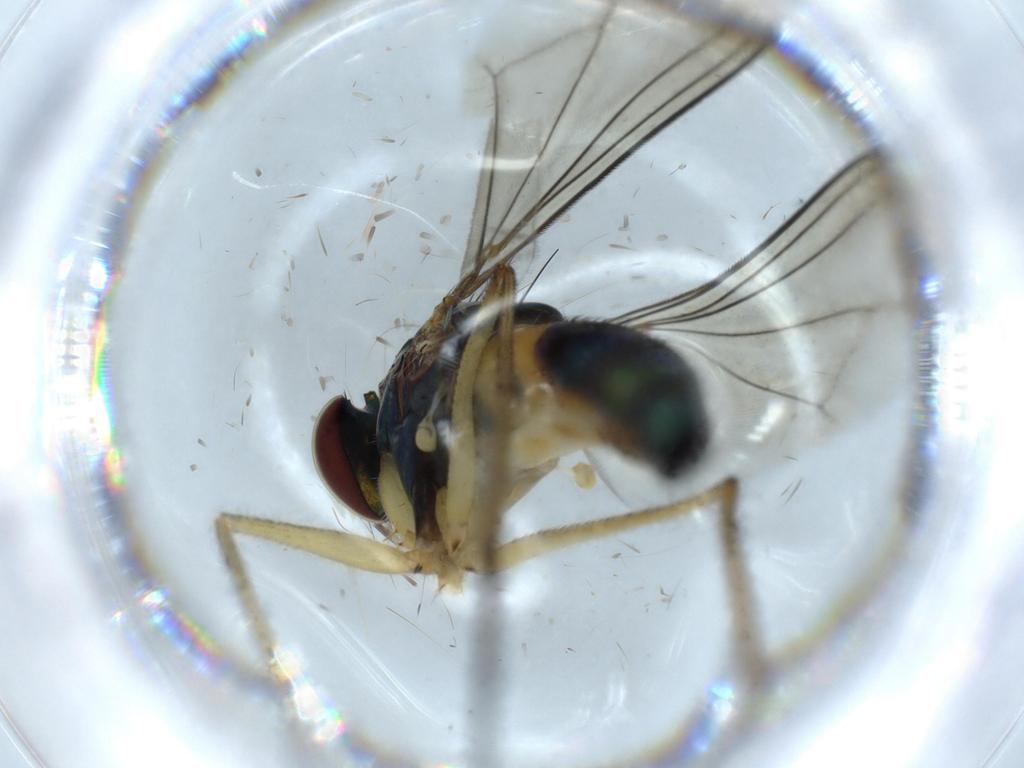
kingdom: Animalia
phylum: Arthropoda
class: Insecta
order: Diptera
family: Dolichopodidae
